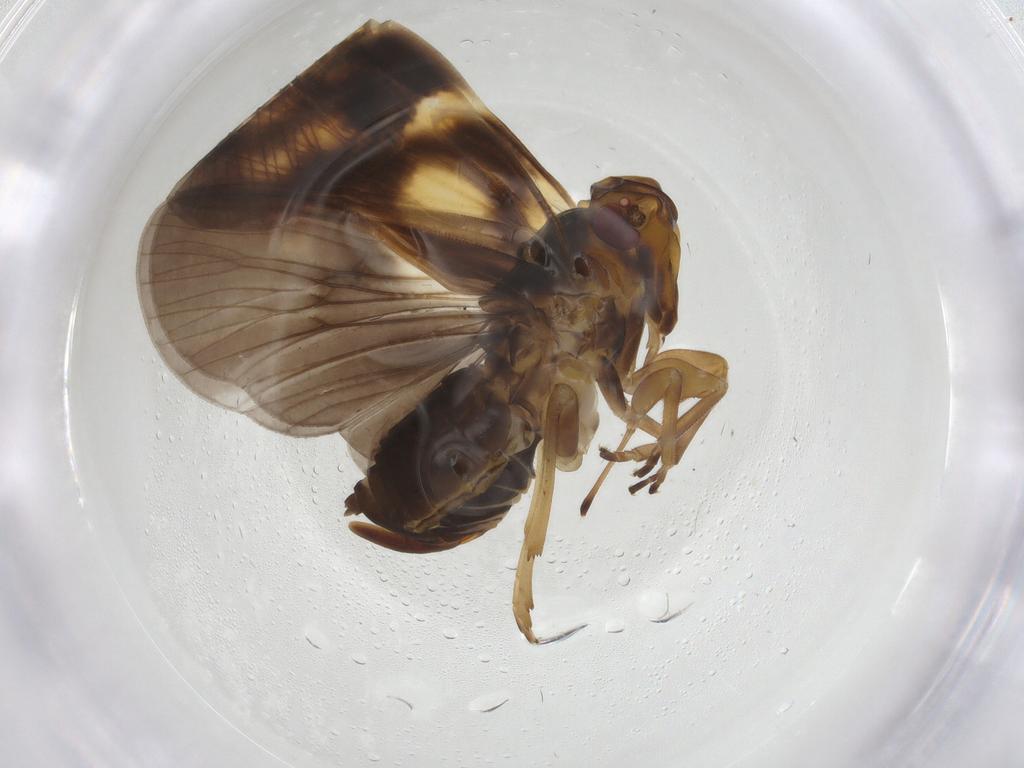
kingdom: Animalia
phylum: Arthropoda
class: Insecta
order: Hemiptera
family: Cixiidae
